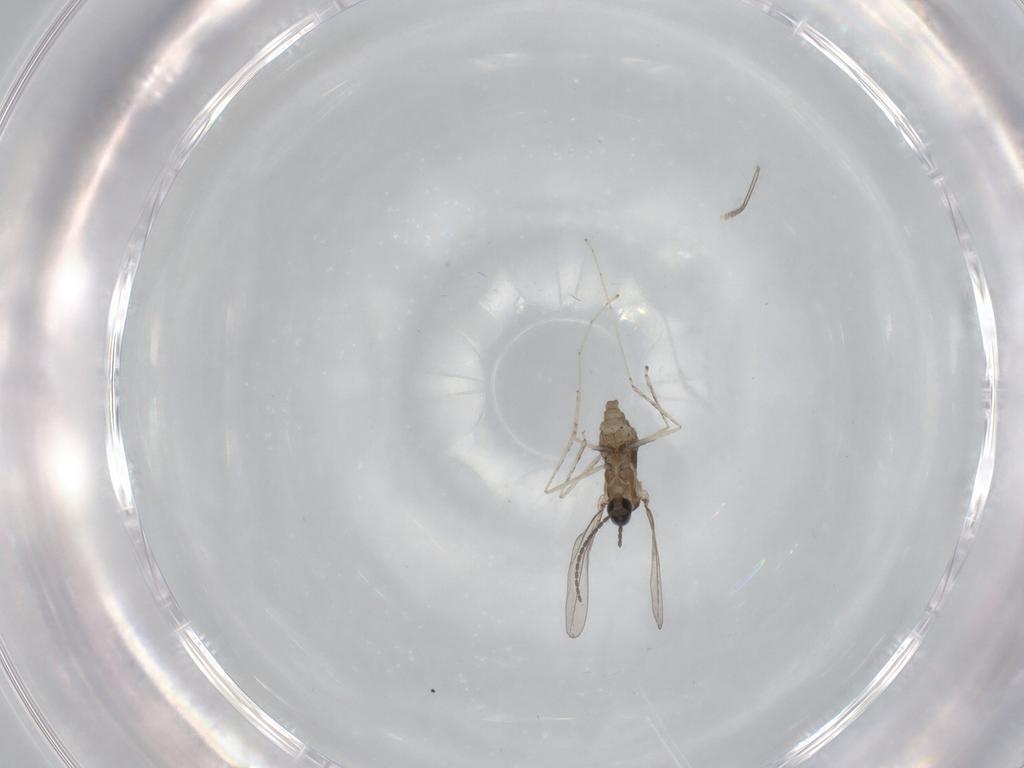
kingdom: Animalia
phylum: Arthropoda
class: Insecta
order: Diptera
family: Cecidomyiidae
